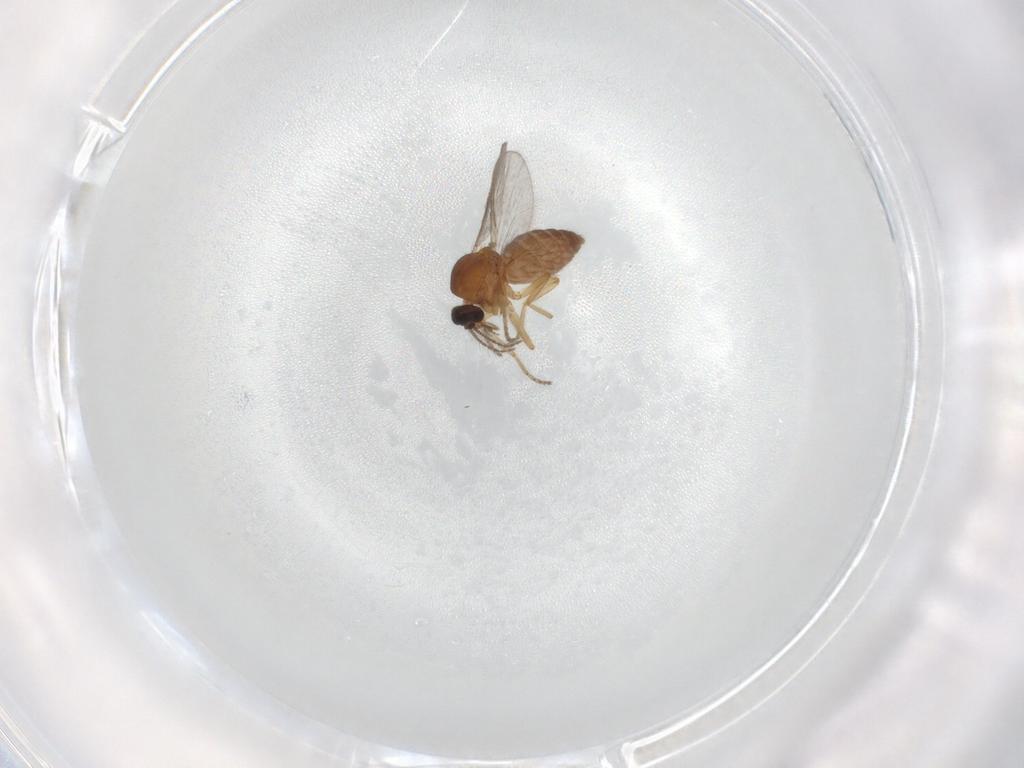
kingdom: Animalia
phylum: Arthropoda
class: Insecta
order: Diptera
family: Ceratopogonidae
